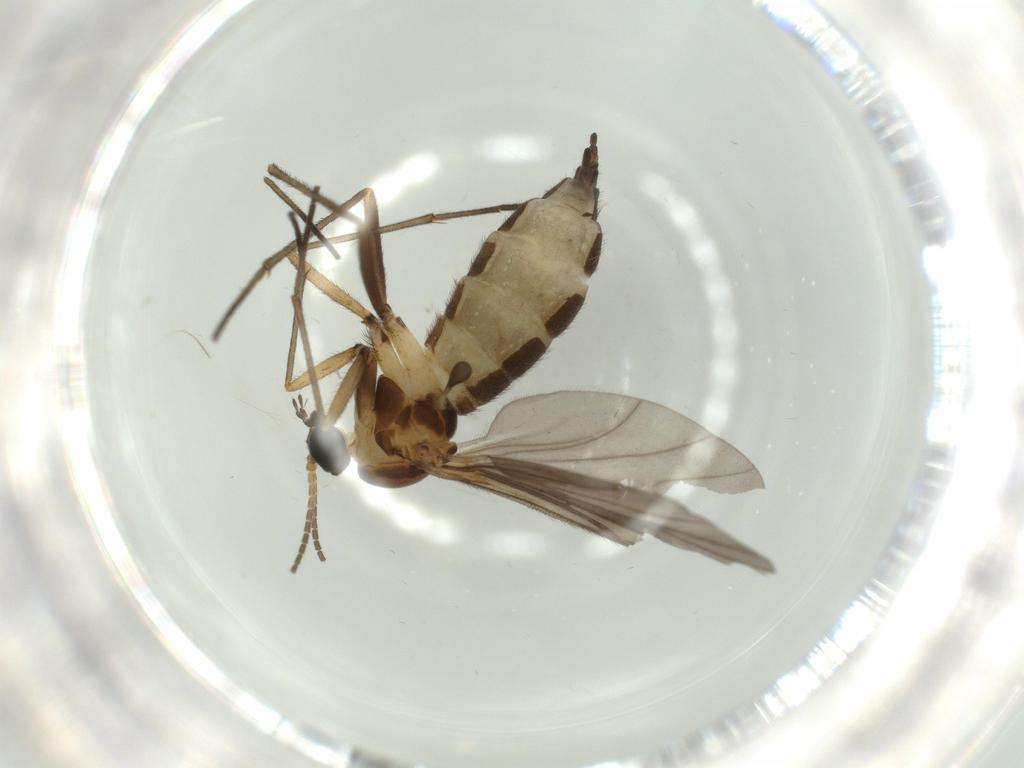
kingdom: Animalia
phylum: Arthropoda
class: Insecta
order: Diptera
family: Sciaridae
